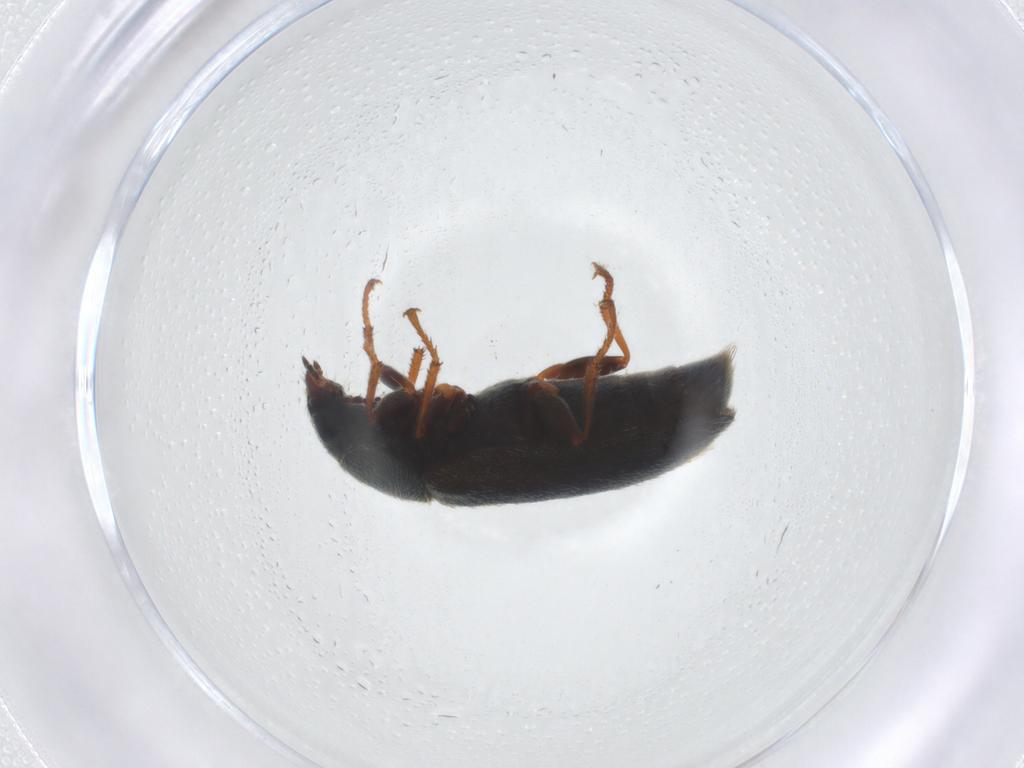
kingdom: Animalia
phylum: Arthropoda
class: Insecta
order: Coleoptera
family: Melyridae
